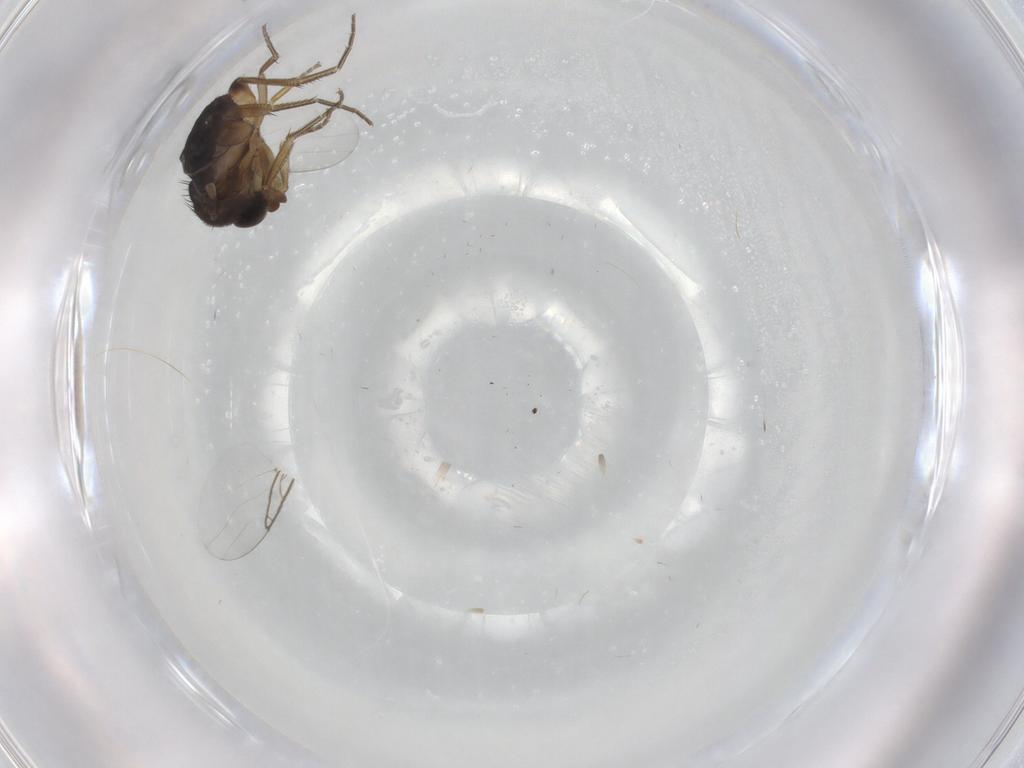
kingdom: Animalia
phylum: Arthropoda
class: Insecta
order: Diptera
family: Phoridae
